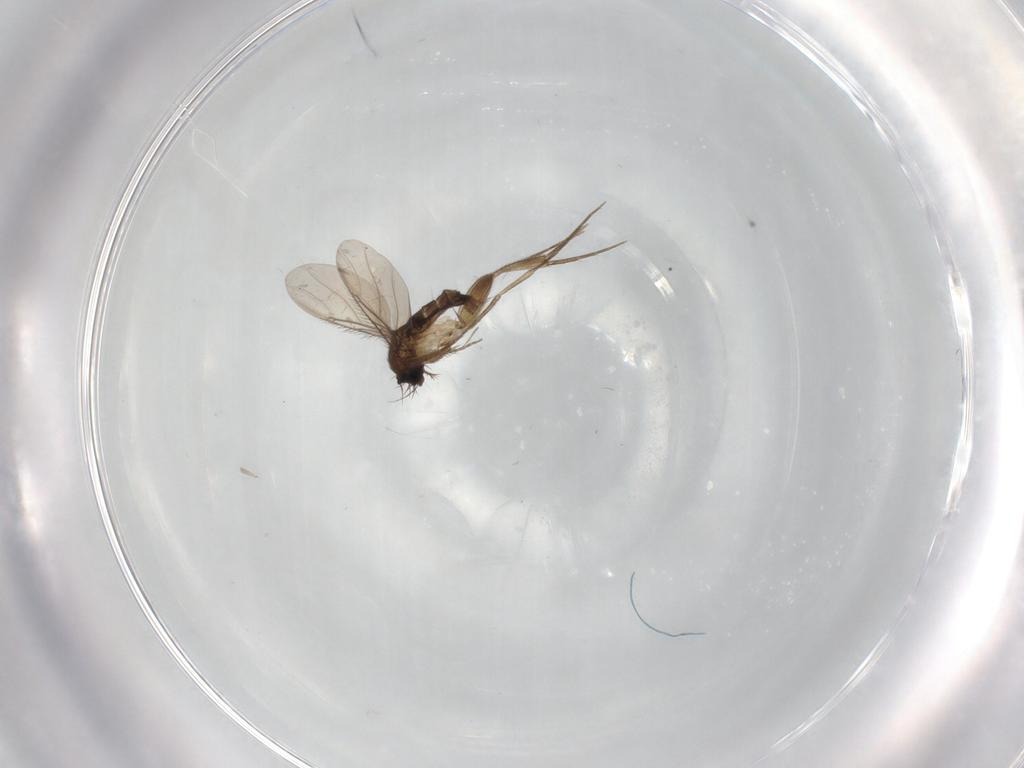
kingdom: Animalia
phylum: Arthropoda
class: Insecta
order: Diptera
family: Phoridae
